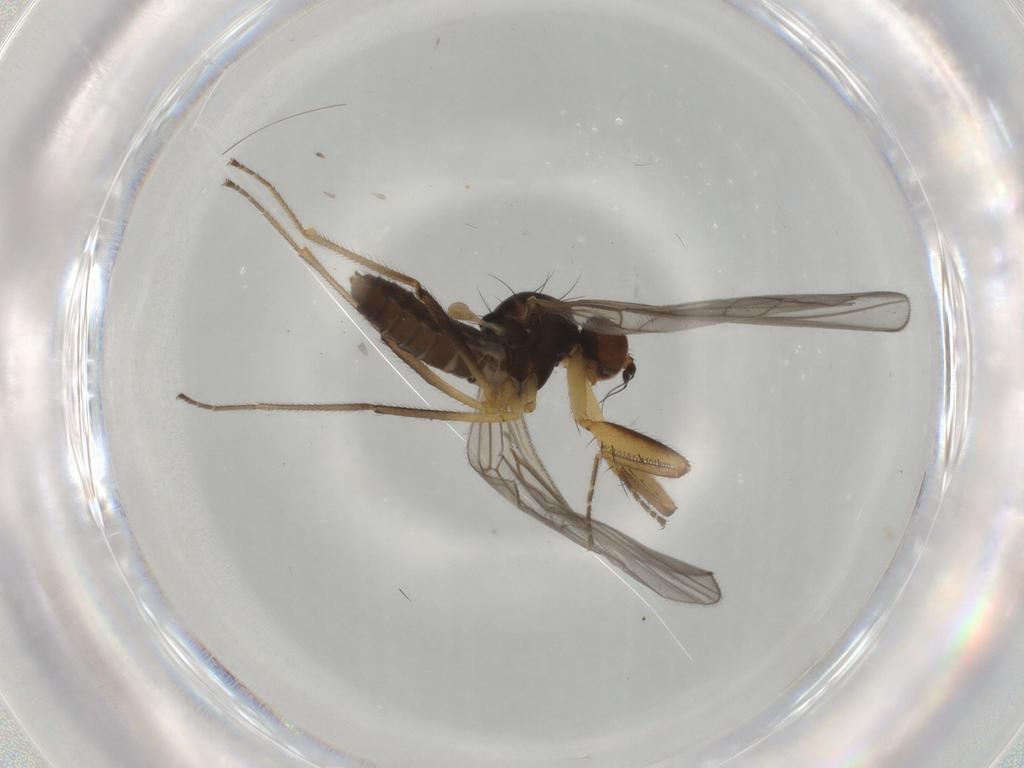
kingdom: Animalia
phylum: Arthropoda
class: Insecta
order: Diptera
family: Empididae
